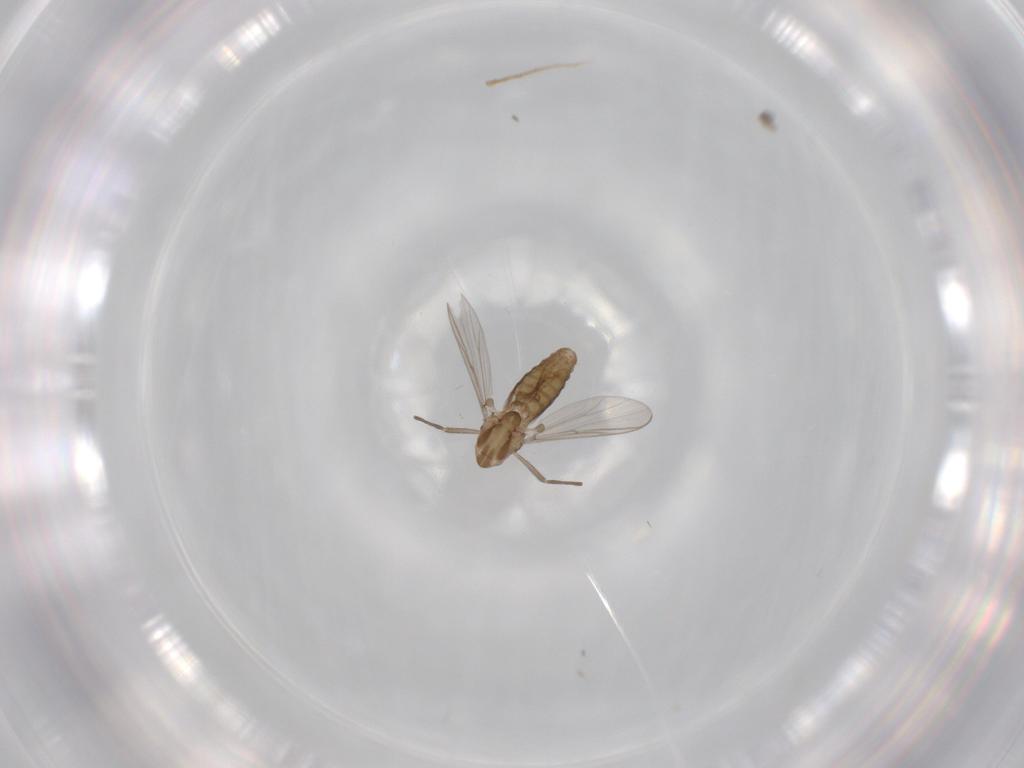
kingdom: Animalia
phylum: Arthropoda
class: Insecta
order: Diptera
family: Chironomidae
